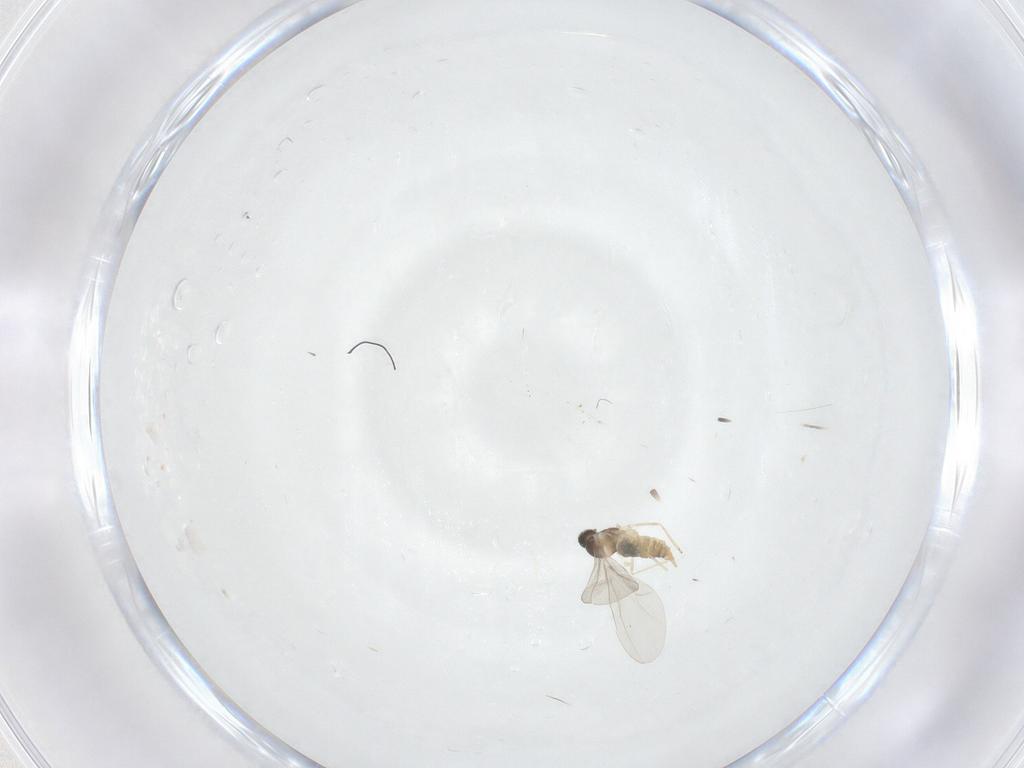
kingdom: Animalia
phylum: Arthropoda
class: Insecta
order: Diptera
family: Cecidomyiidae
